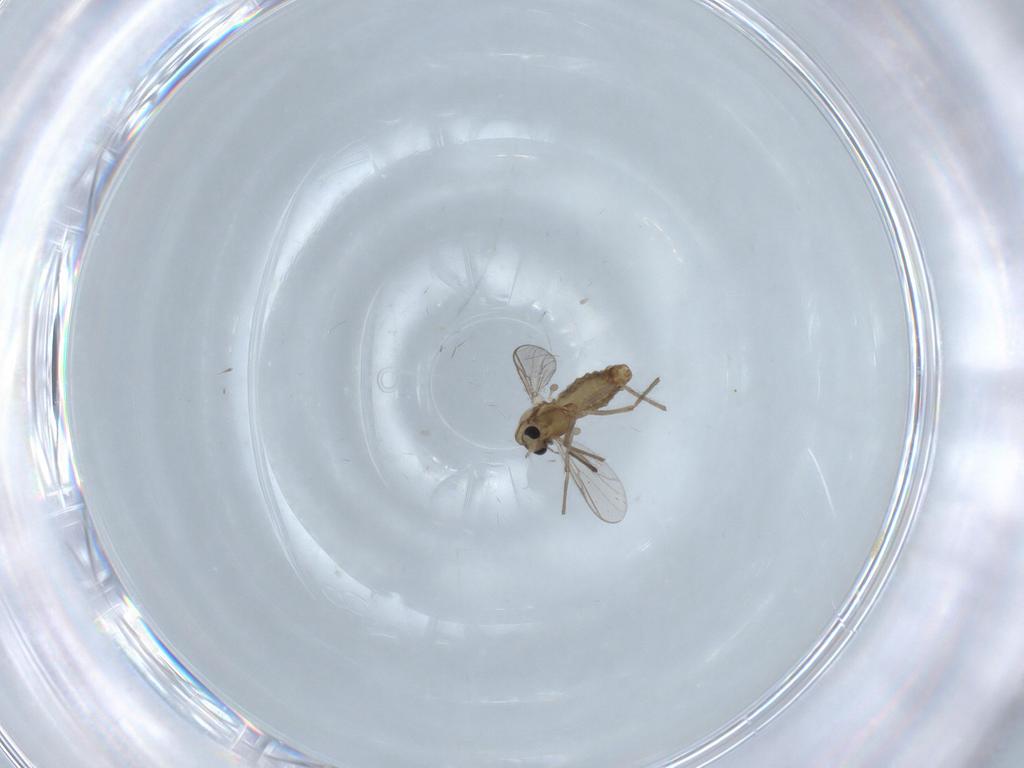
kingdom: Animalia
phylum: Arthropoda
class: Insecta
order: Diptera
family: Chironomidae
